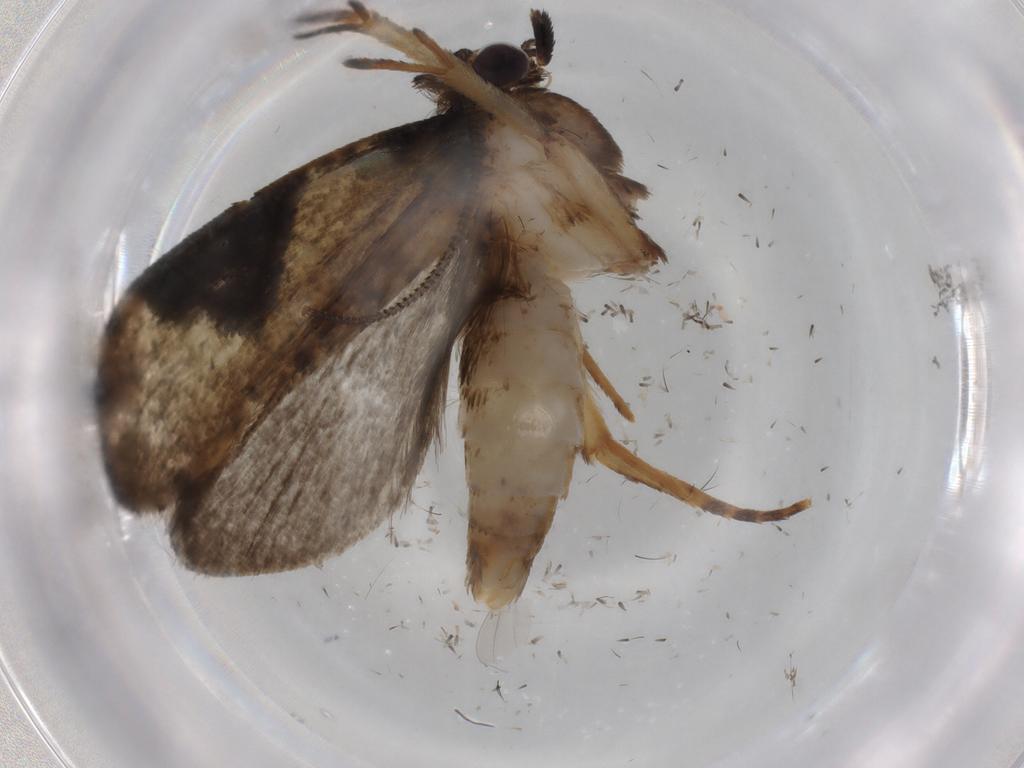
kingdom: Animalia
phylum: Arthropoda
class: Insecta
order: Lepidoptera
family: Tineidae
